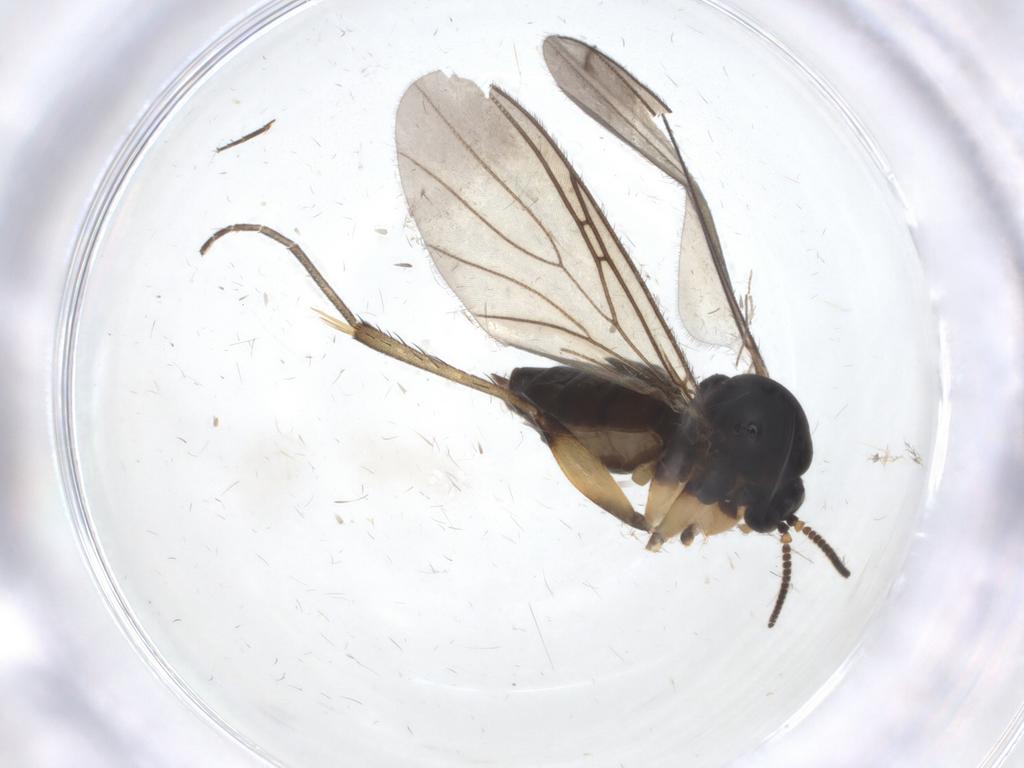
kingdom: Animalia
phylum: Arthropoda
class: Insecta
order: Diptera
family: Mycetophilidae
